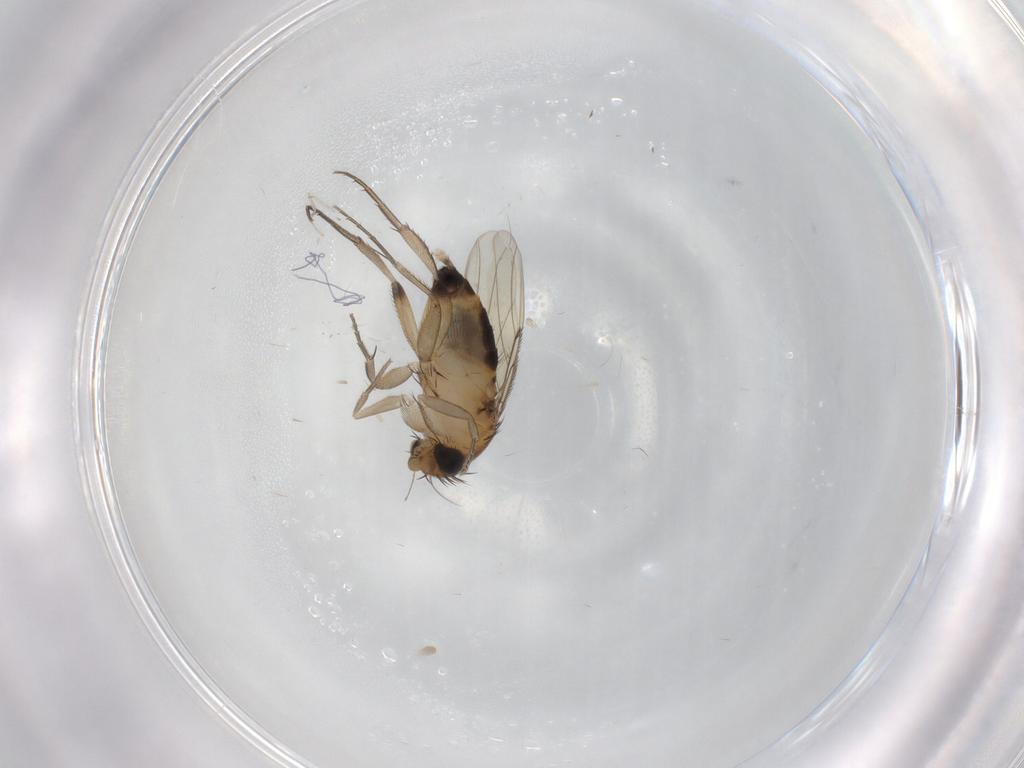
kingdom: Animalia
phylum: Arthropoda
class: Insecta
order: Diptera
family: Phoridae
